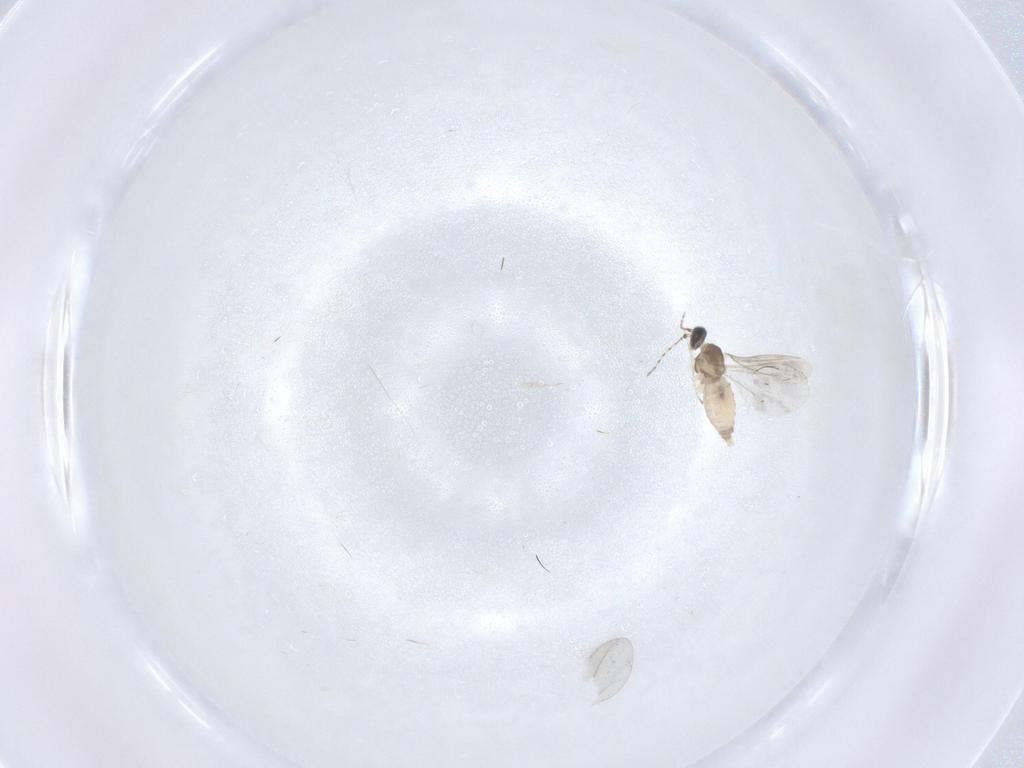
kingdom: Animalia
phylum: Arthropoda
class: Insecta
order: Diptera
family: Cecidomyiidae
